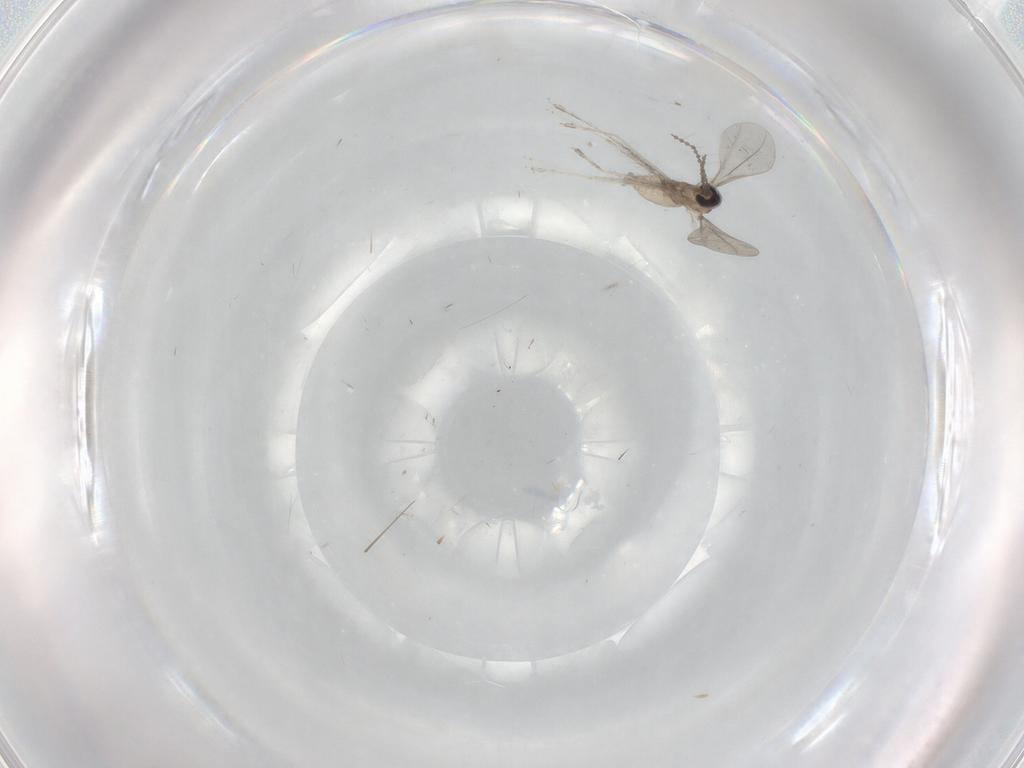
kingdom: Animalia
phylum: Arthropoda
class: Insecta
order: Diptera
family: Cecidomyiidae
